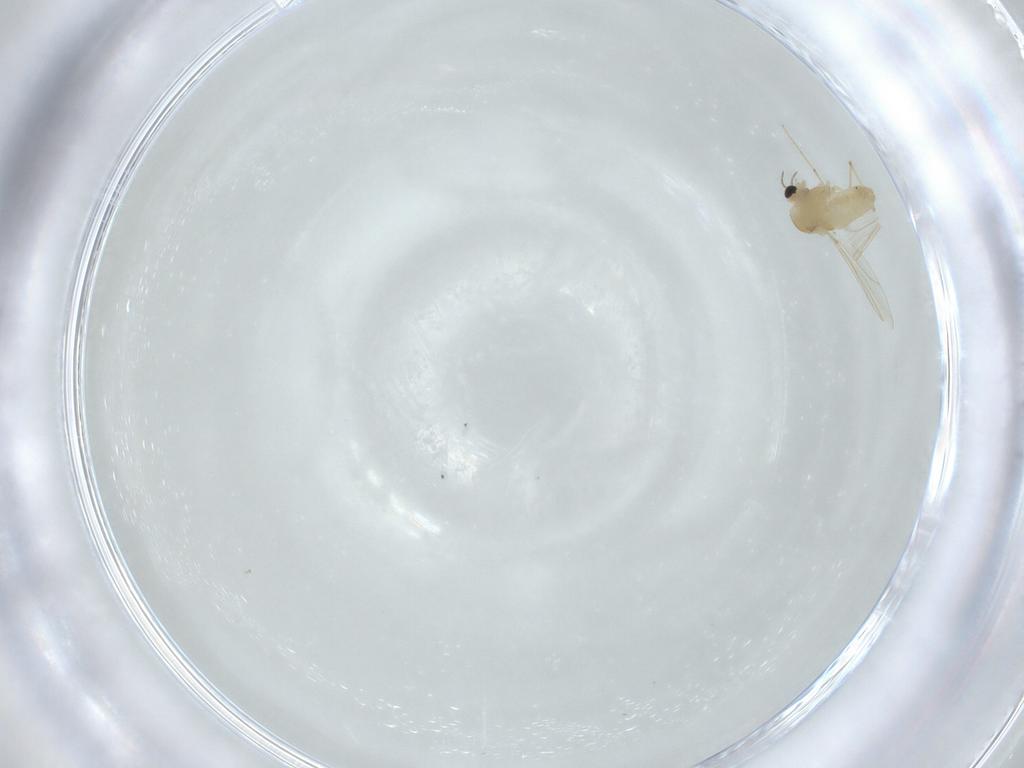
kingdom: Animalia
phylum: Arthropoda
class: Insecta
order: Diptera
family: Chironomidae
